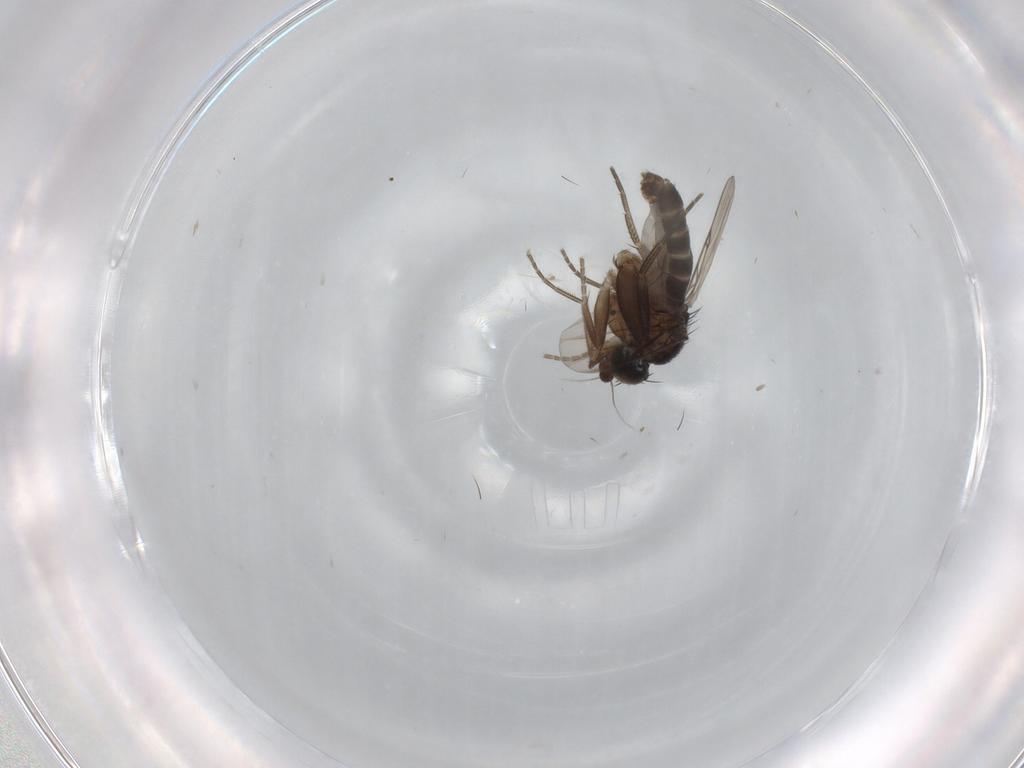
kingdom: Animalia
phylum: Arthropoda
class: Insecta
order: Diptera
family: Phoridae
